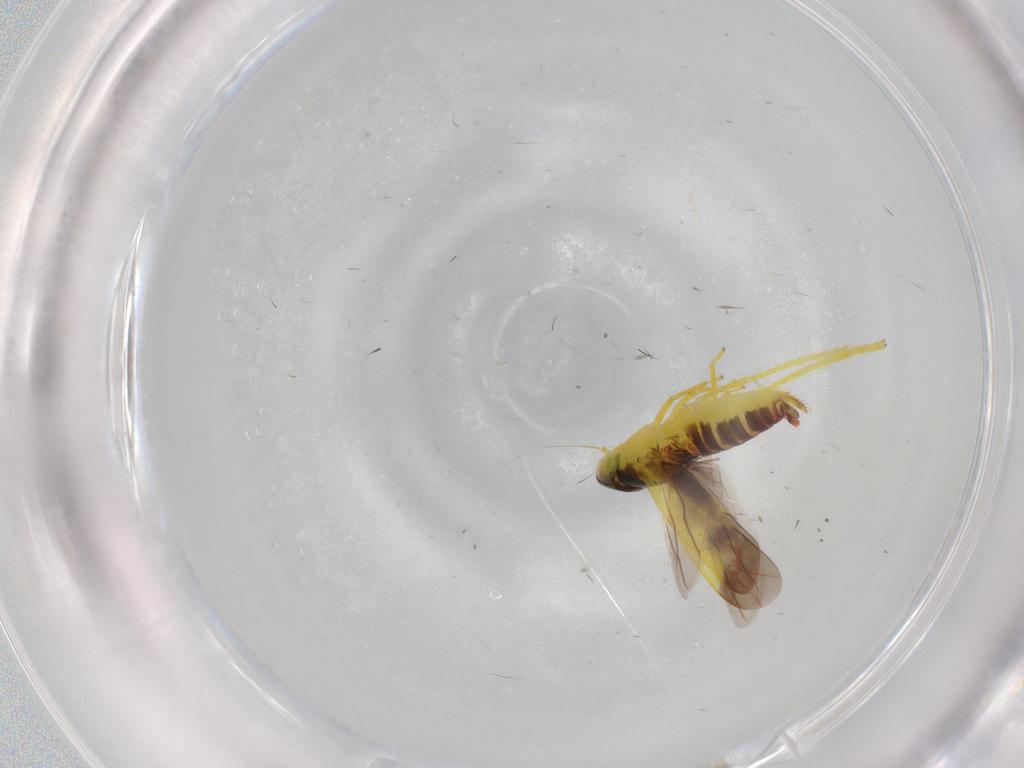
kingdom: Animalia
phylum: Arthropoda
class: Insecta
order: Hemiptera
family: Cicadellidae
